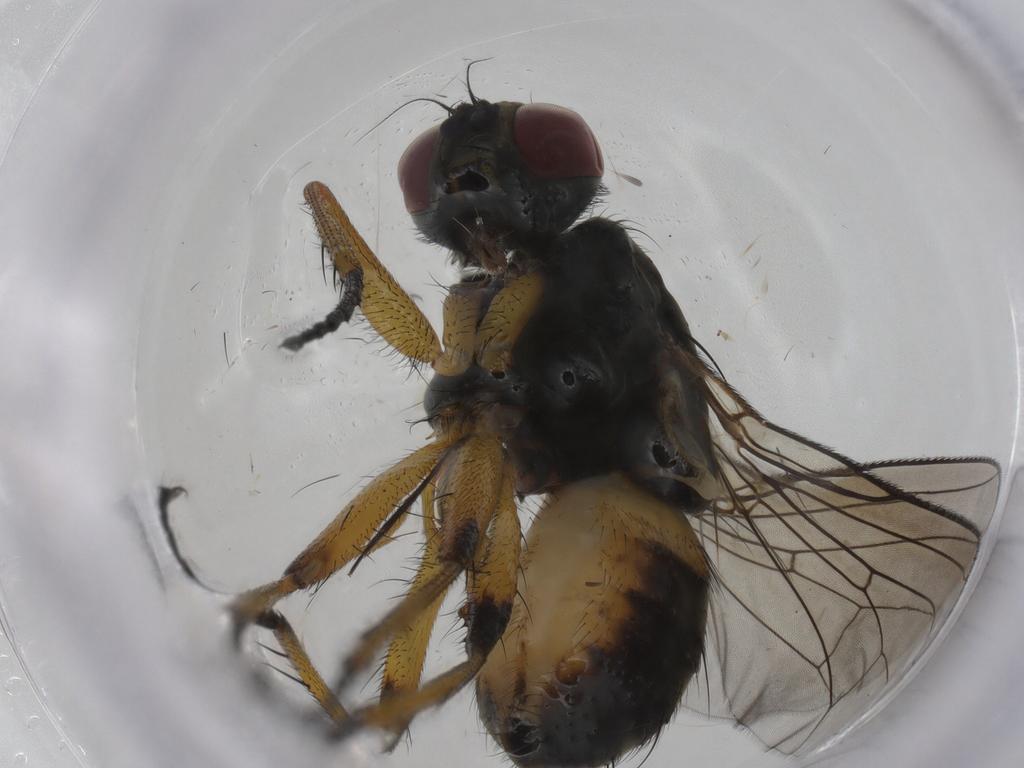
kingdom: Animalia
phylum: Arthropoda
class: Insecta
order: Diptera
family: Muscidae
